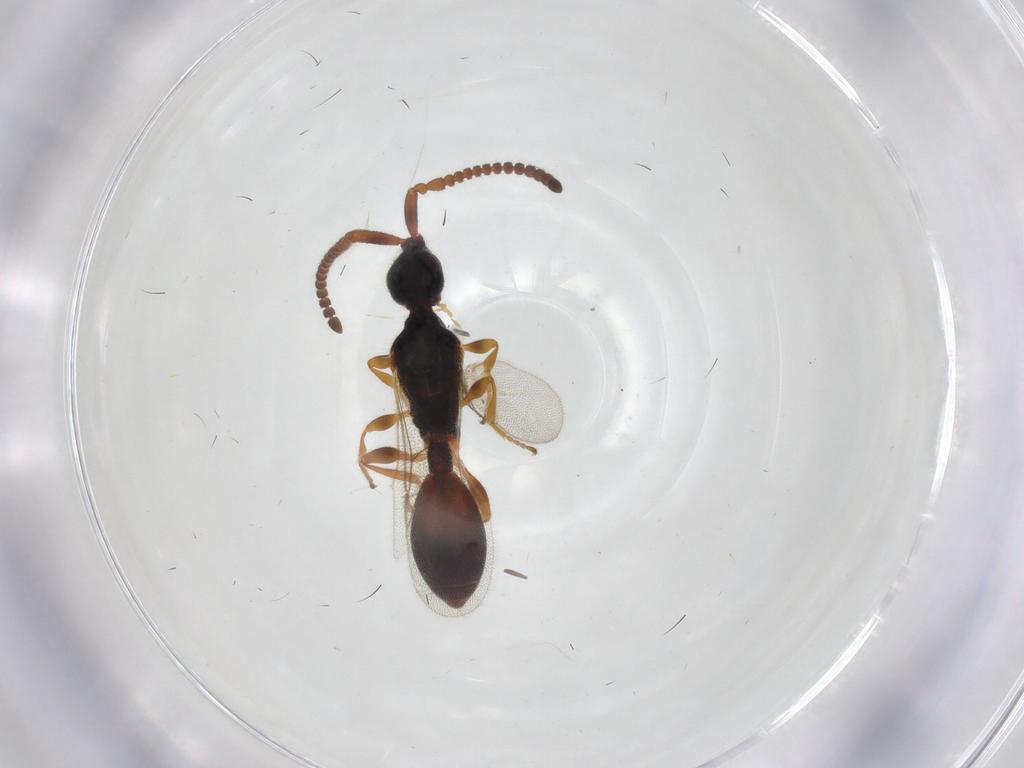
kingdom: Animalia
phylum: Arthropoda
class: Insecta
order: Hymenoptera
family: Diapriidae
